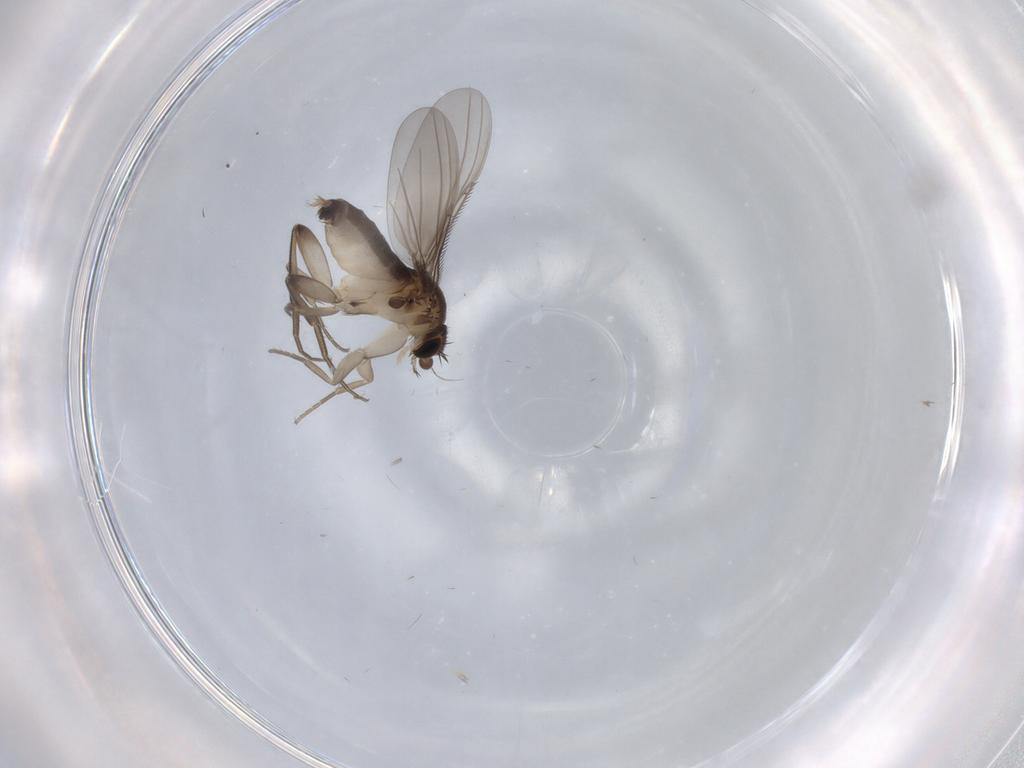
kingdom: Animalia
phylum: Arthropoda
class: Insecta
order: Diptera
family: Phoridae
